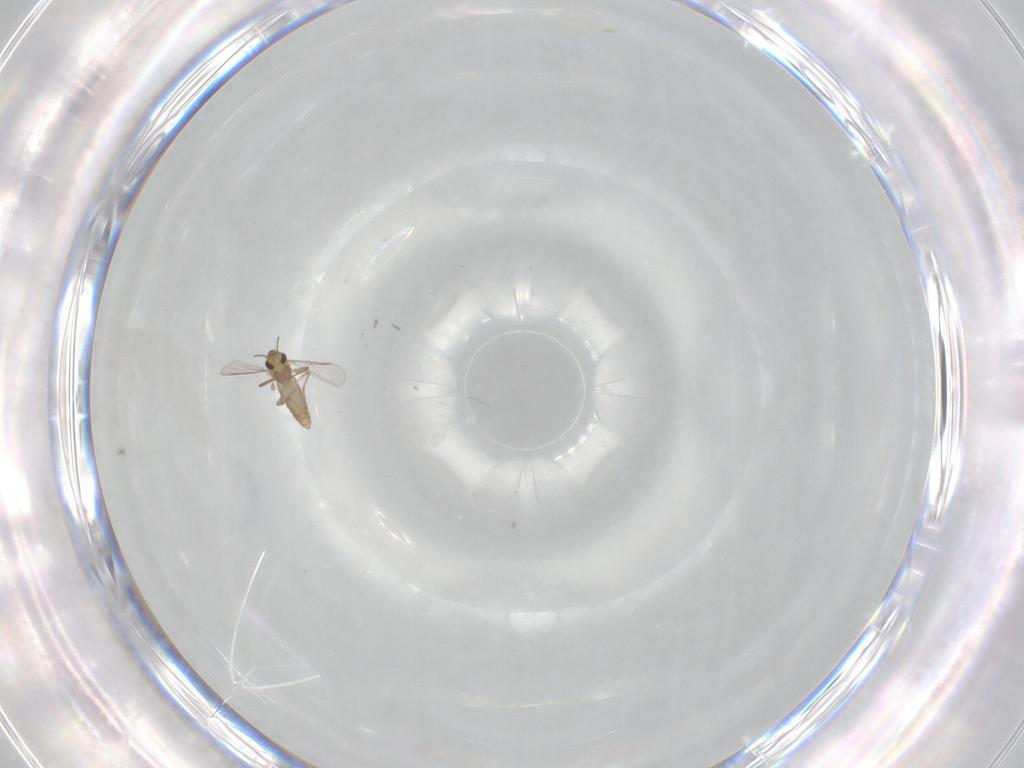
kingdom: Animalia
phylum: Arthropoda
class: Insecta
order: Diptera
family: Chironomidae
